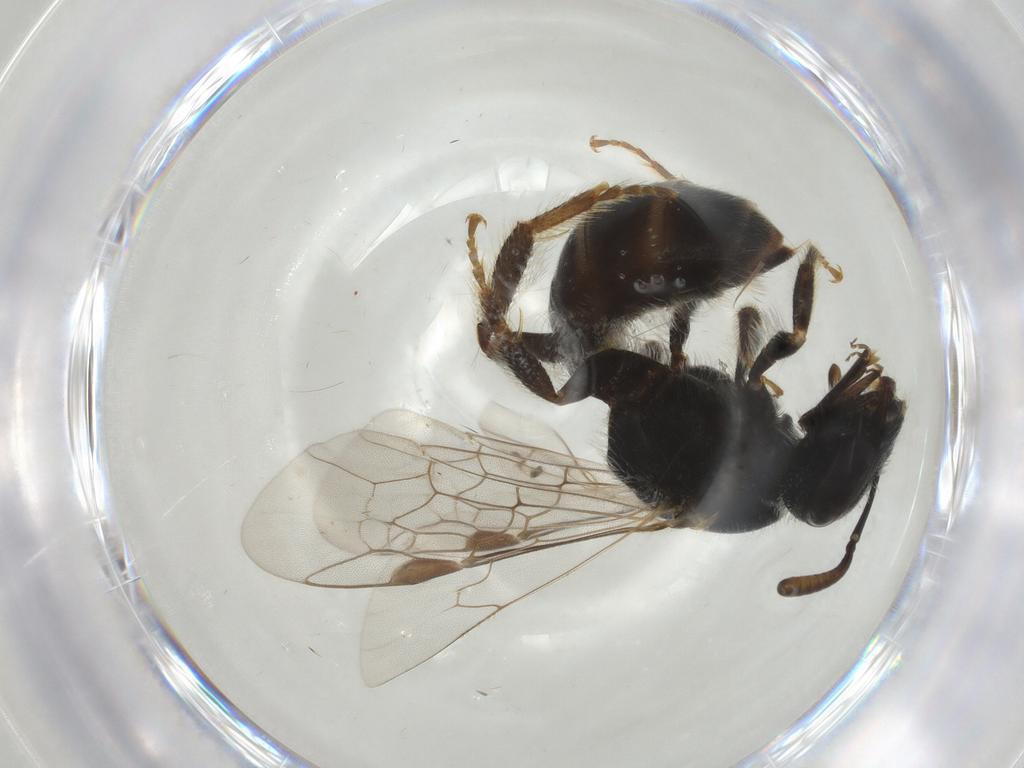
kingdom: Animalia
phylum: Arthropoda
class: Insecta
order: Hymenoptera
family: Halictidae
